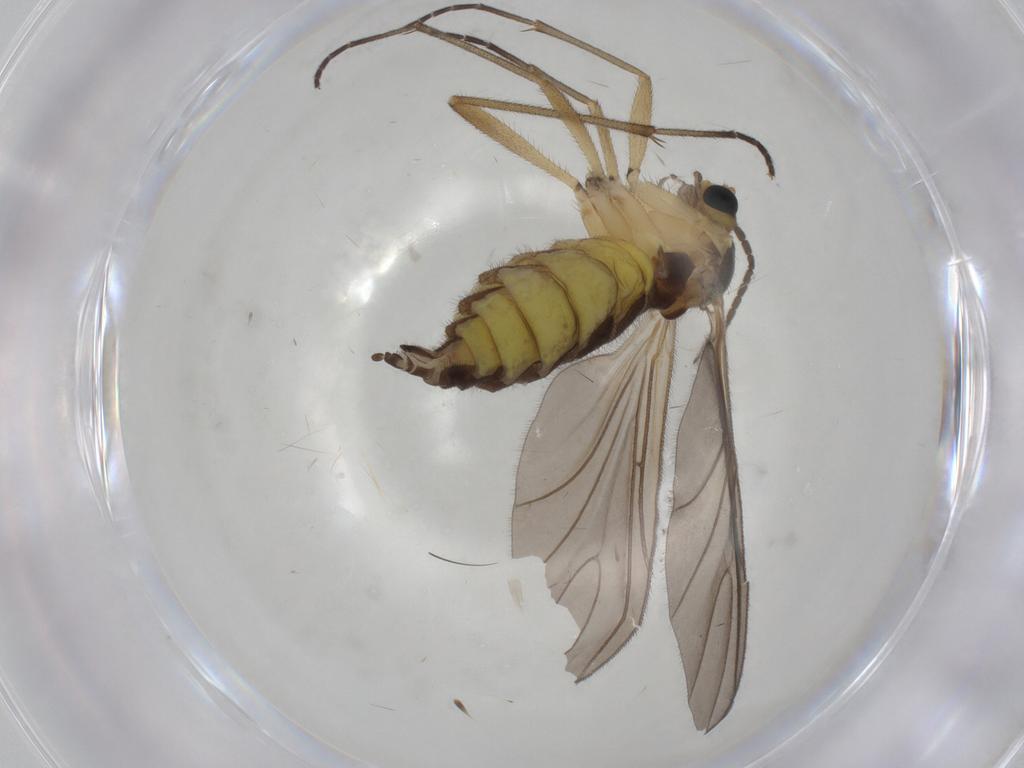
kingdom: Animalia
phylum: Arthropoda
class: Insecta
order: Diptera
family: Sciaridae
